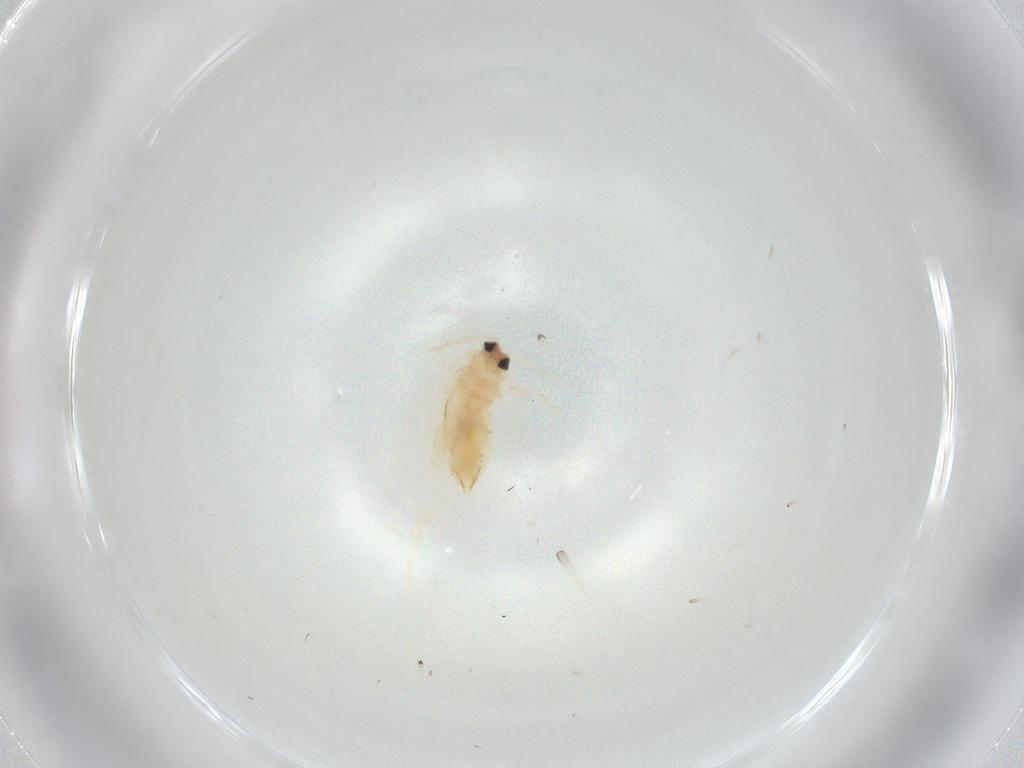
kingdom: Animalia
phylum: Arthropoda
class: Insecta
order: Lepidoptera
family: Nepticulidae
